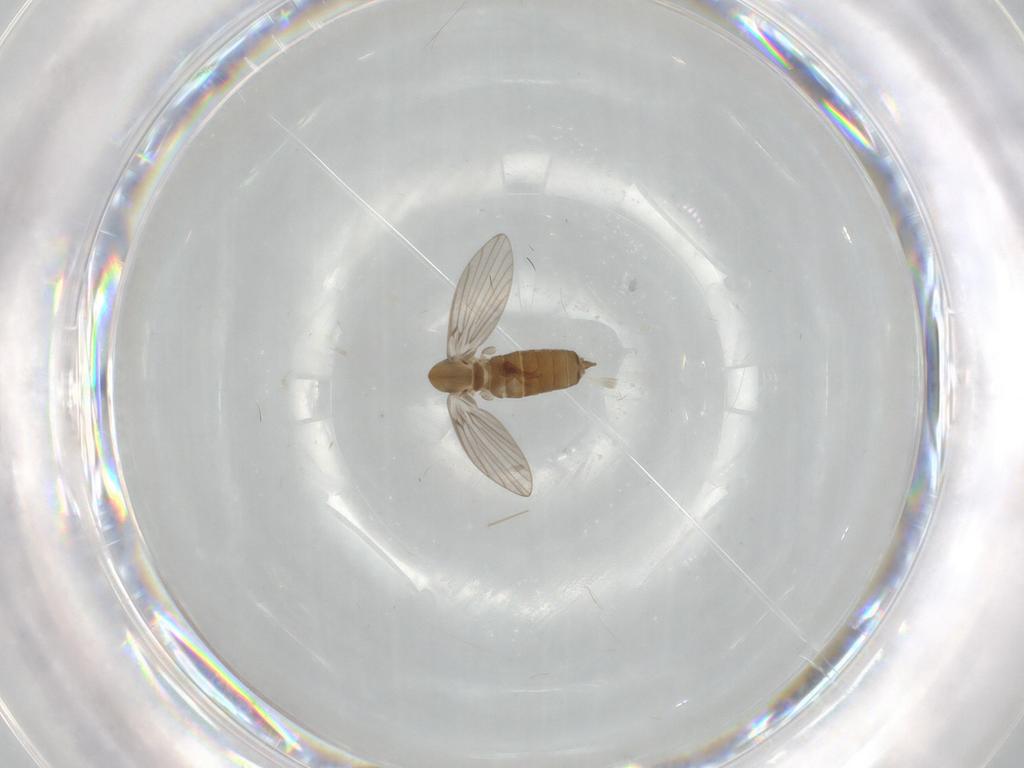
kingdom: Animalia
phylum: Arthropoda
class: Insecta
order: Diptera
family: Psychodidae
